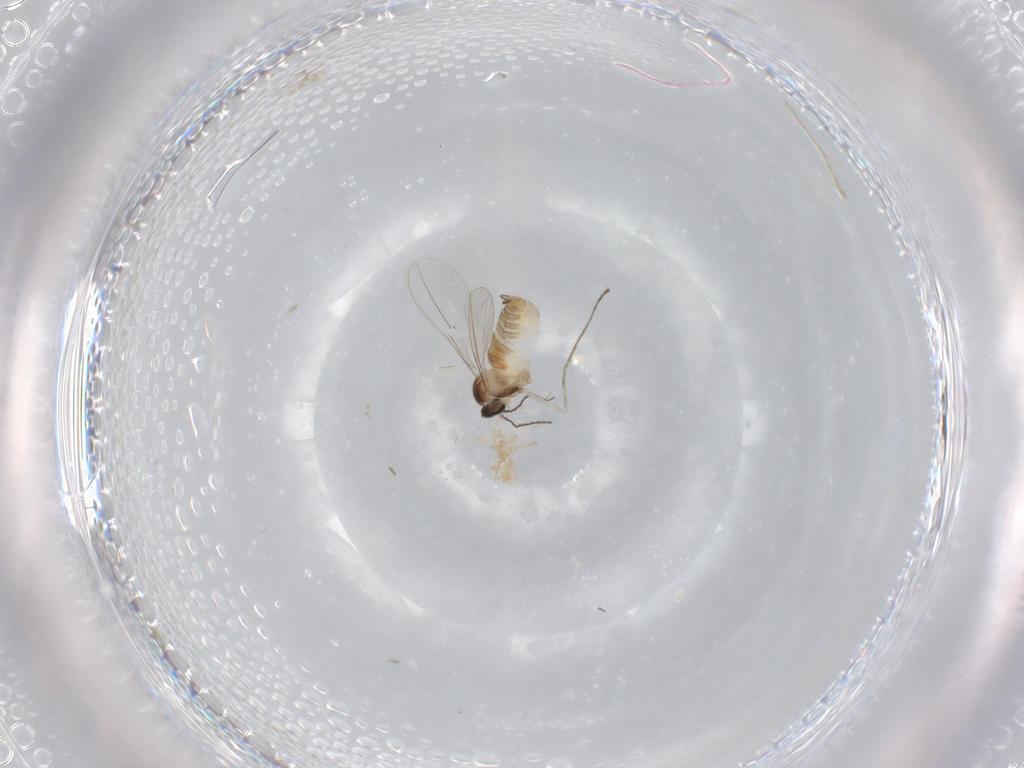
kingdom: Animalia
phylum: Arthropoda
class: Insecta
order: Diptera
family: Cecidomyiidae
